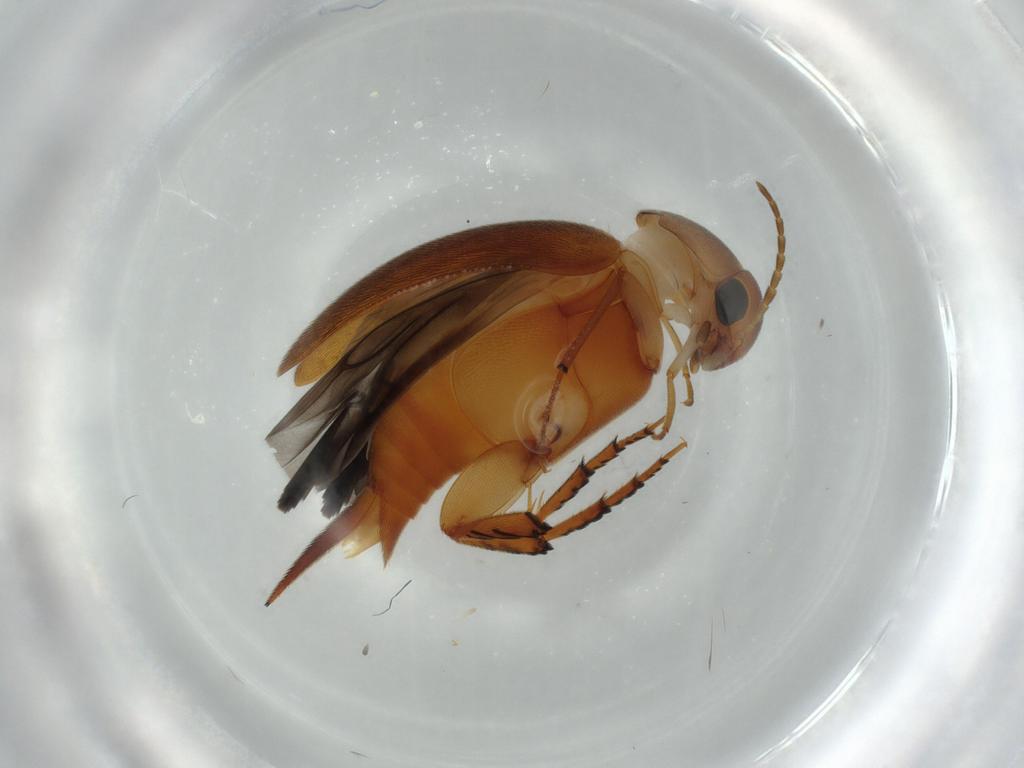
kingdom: Animalia
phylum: Arthropoda
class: Insecta
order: Coleoptera
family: Mordellidae
